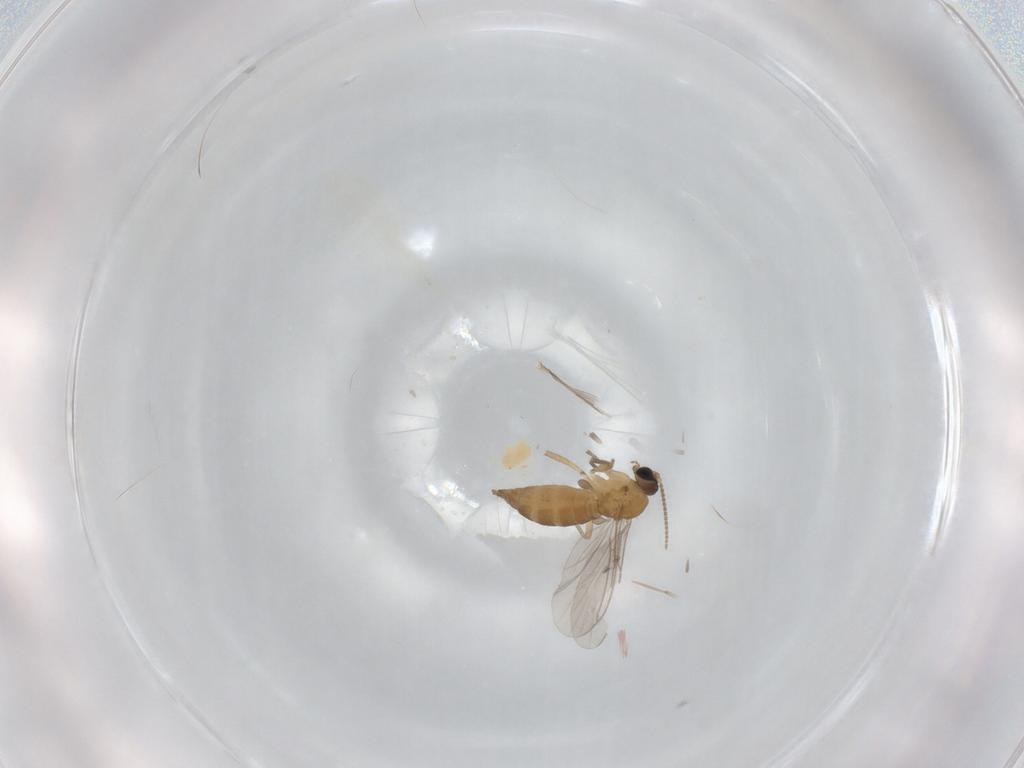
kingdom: Animalia
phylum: Arthropoda
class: Insecta
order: Diptera
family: Sciaridae
